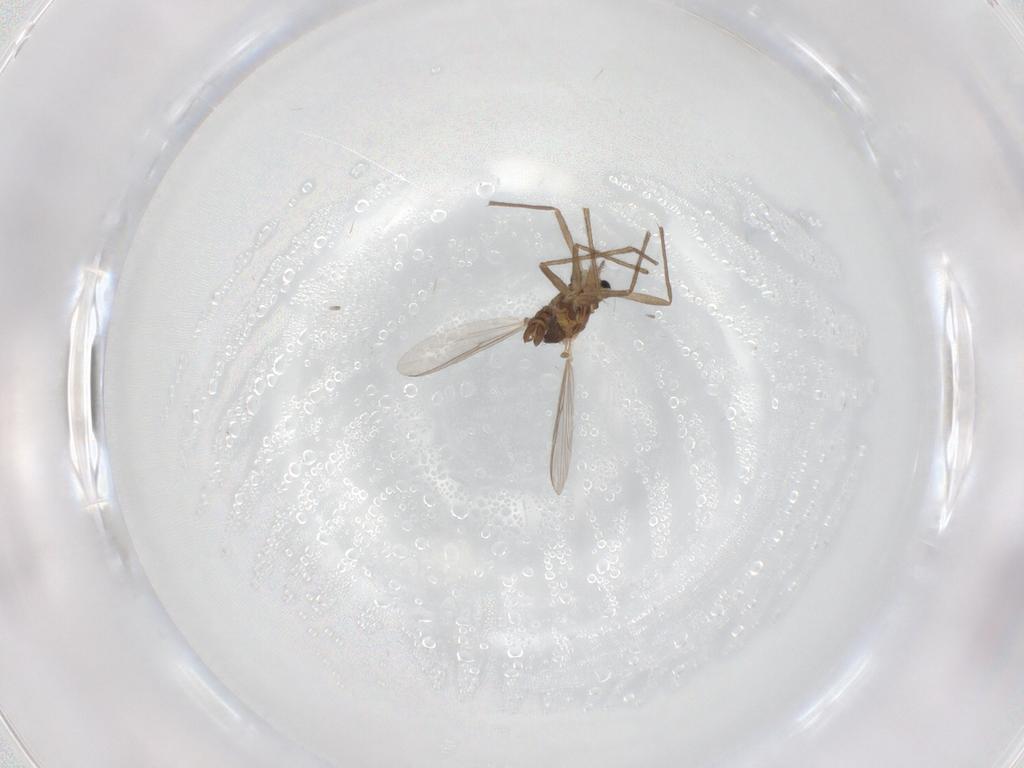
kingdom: Animalia
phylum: Arthropoda
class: Insecta
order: Diptera
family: Chironomidae
